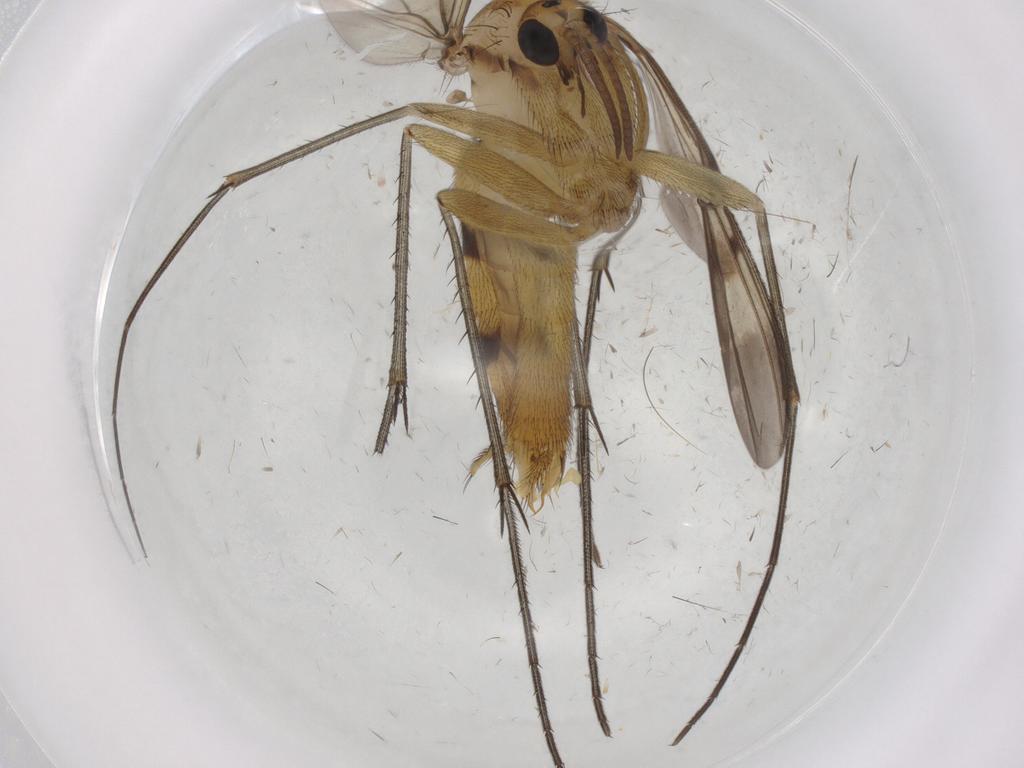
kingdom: Animalia
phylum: Arthropoda
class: Insecta
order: Diptera
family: Mycetophilidae
